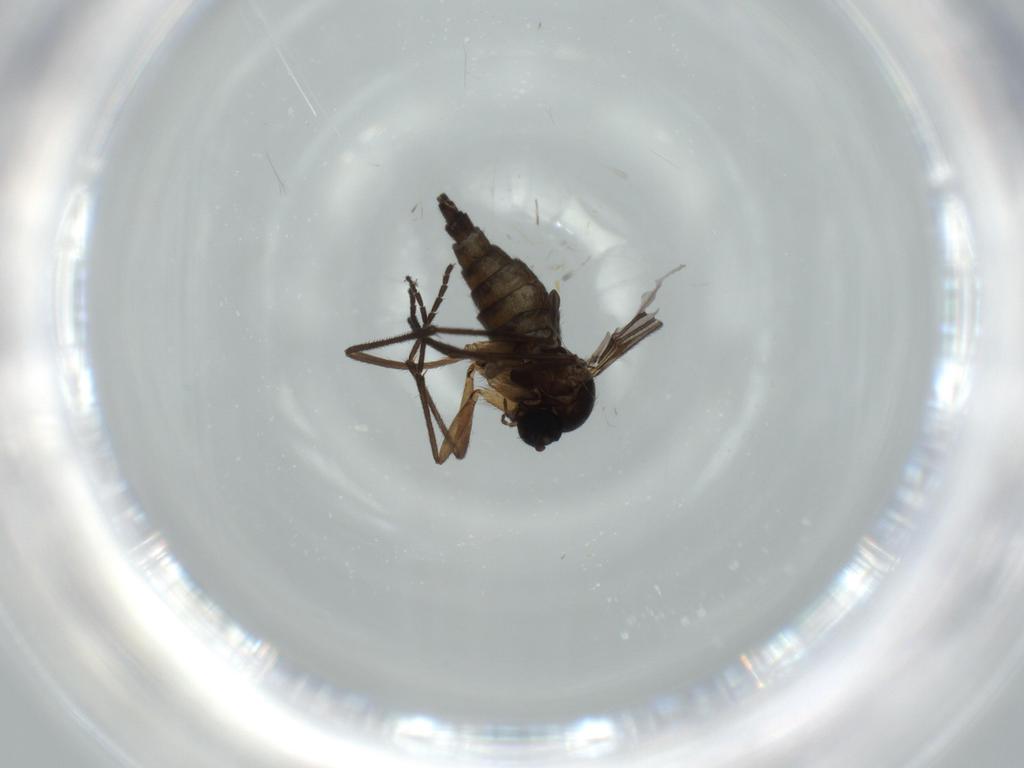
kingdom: Animalia
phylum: Arthropoda
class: Insecta
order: Diptera
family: Sciaridae
